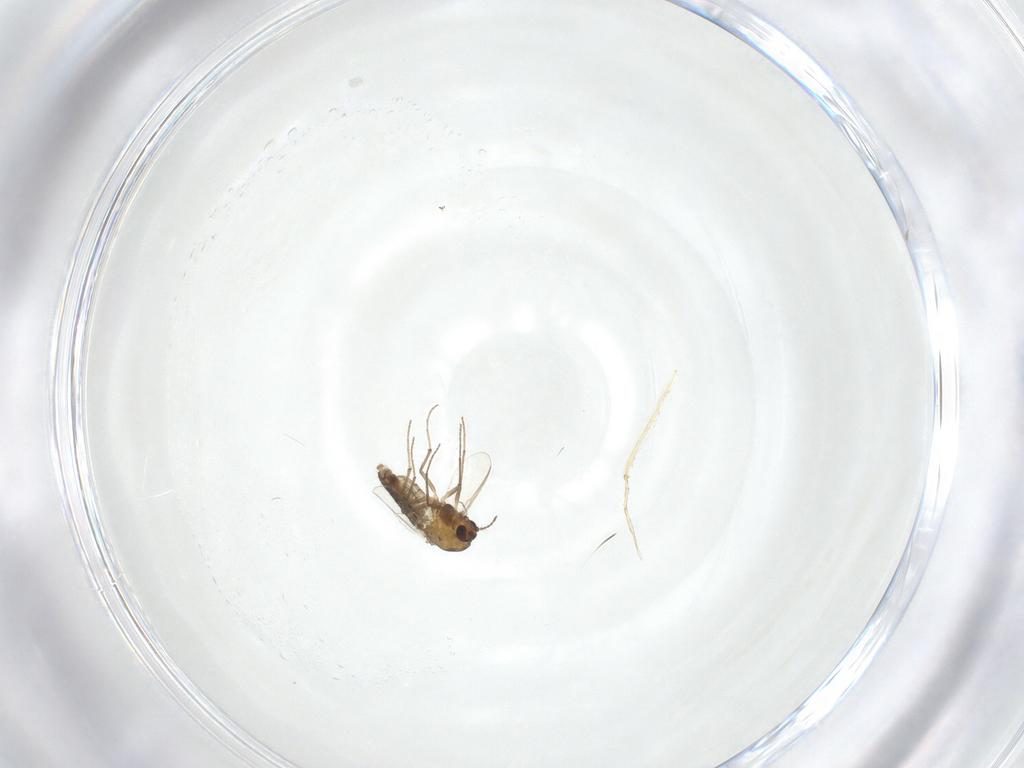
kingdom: Animalia
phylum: Arthropoda
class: Insecta
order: Diptera
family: Chironomidae
